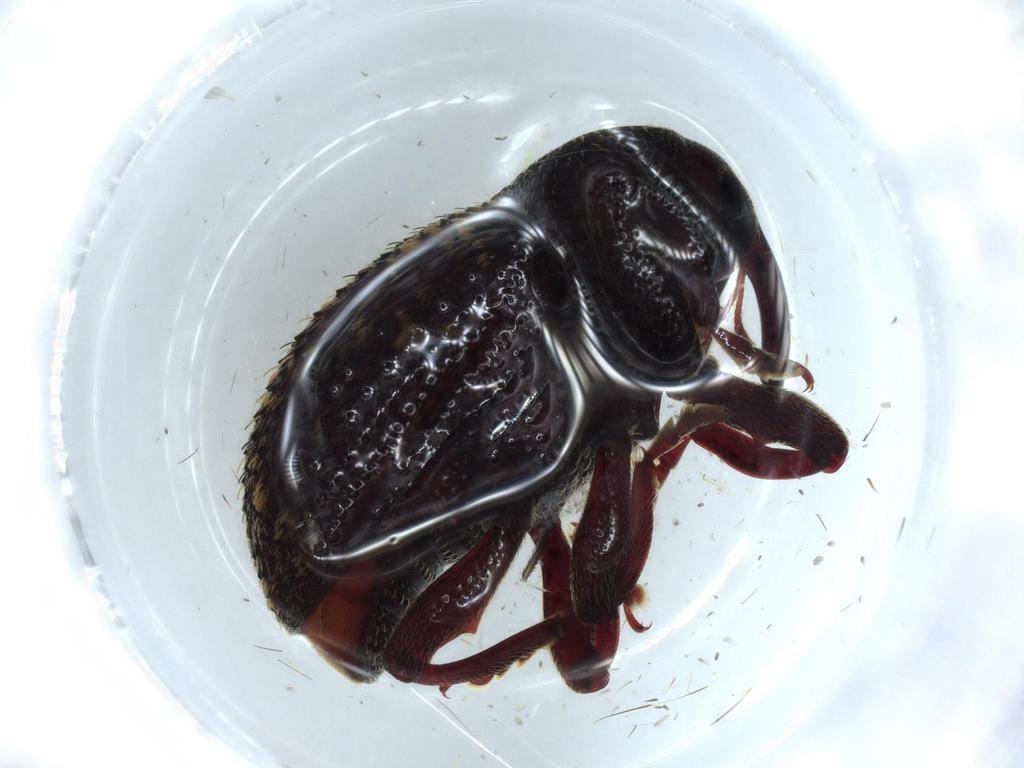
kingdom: Animalia
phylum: Arthropoda
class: Insecta
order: Coleoptera
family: Curculionidae
